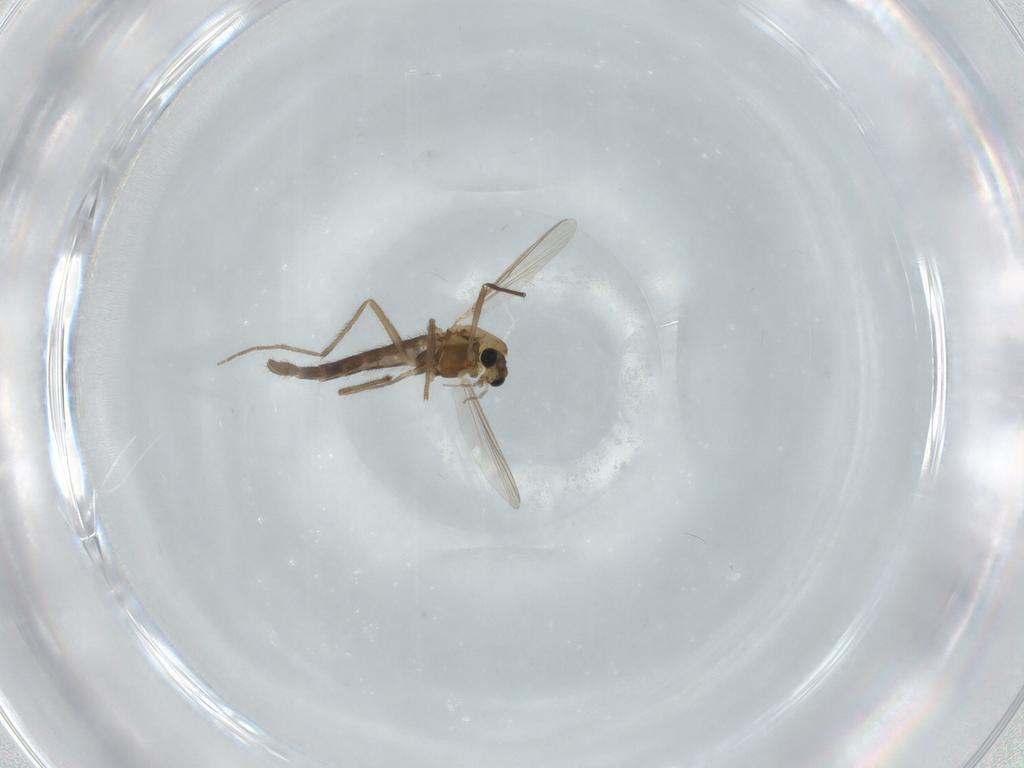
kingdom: Animalia
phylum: Arthropoda
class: Insecta
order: Diptera
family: Chironomidae
